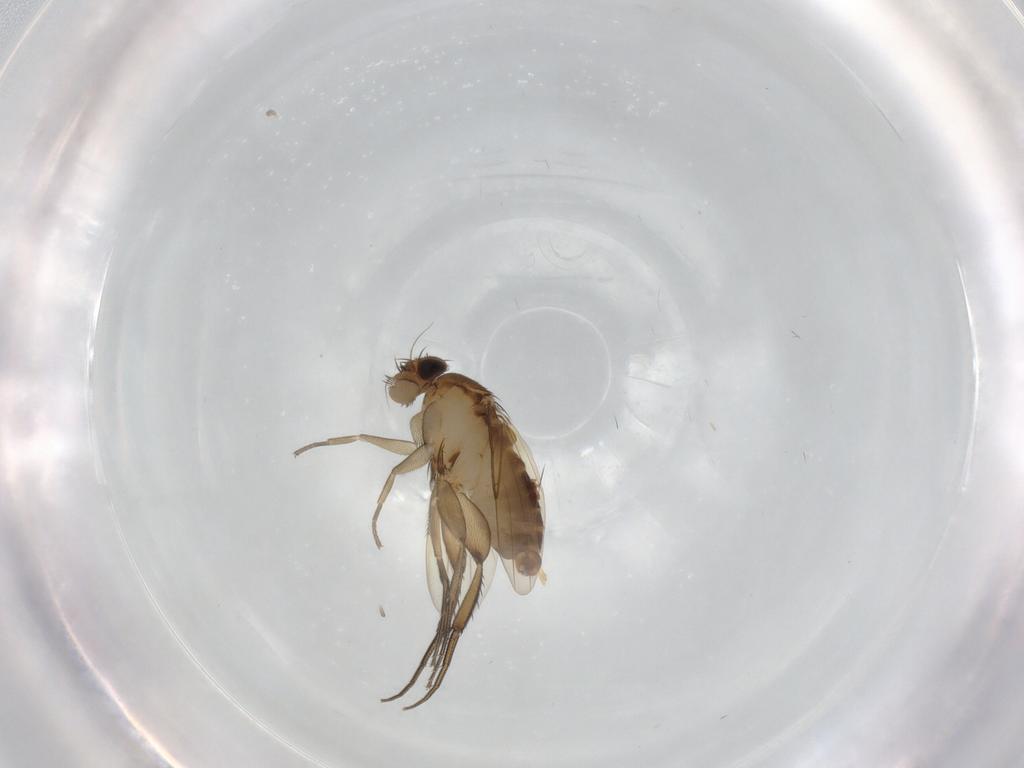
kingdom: Animalia
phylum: Arthropoda
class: Insecta
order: Diptera
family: Phoridae
